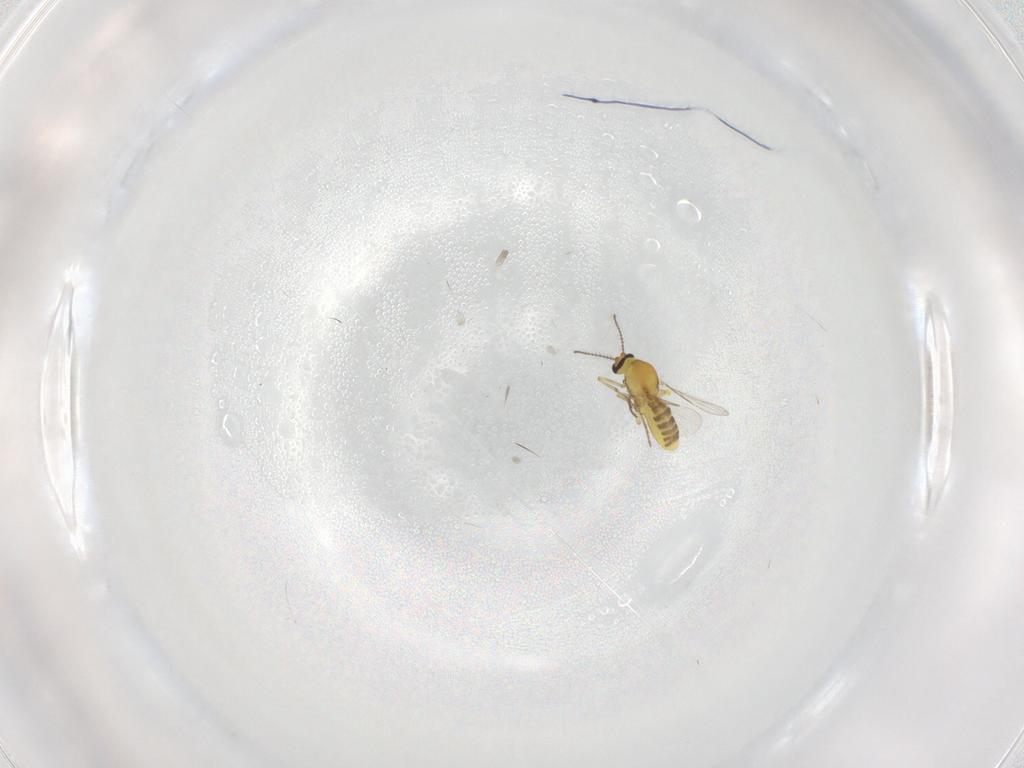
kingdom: Animalia
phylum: Arthropoda
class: Insecta
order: Diptera
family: Ceratopogonidae
